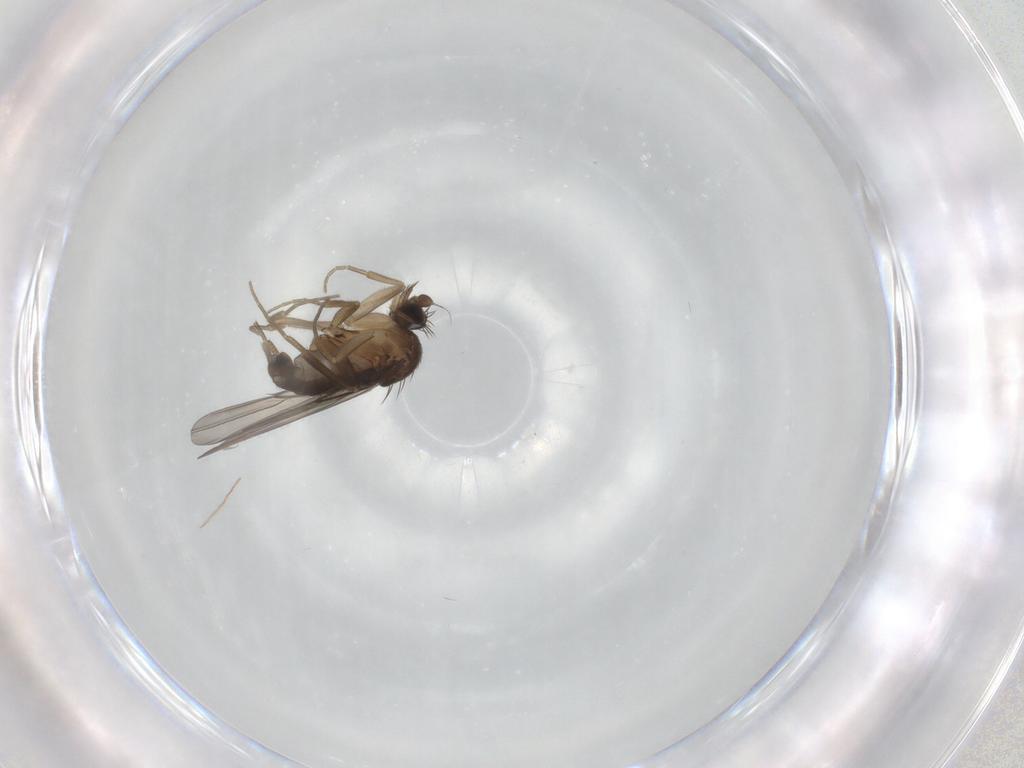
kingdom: Animalia
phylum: Arthropoda
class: Insecta
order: Diptera
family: Phoridae
